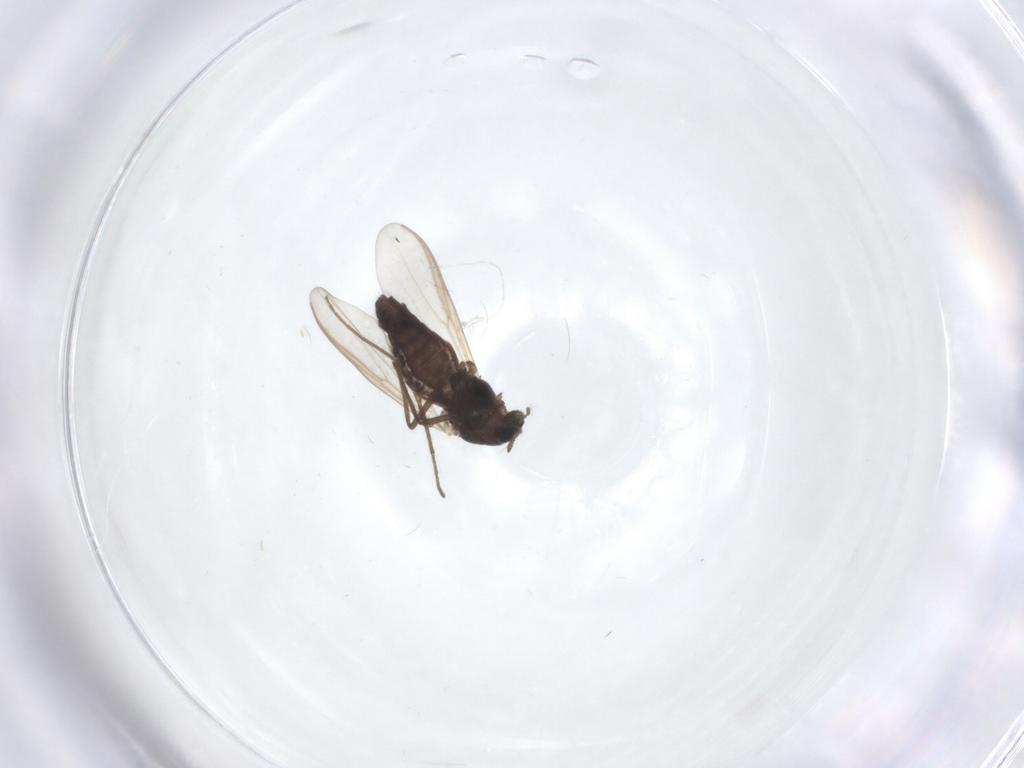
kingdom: Animalia
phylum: Arthropoda
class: Insecta
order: Diptera
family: Chironomidae
